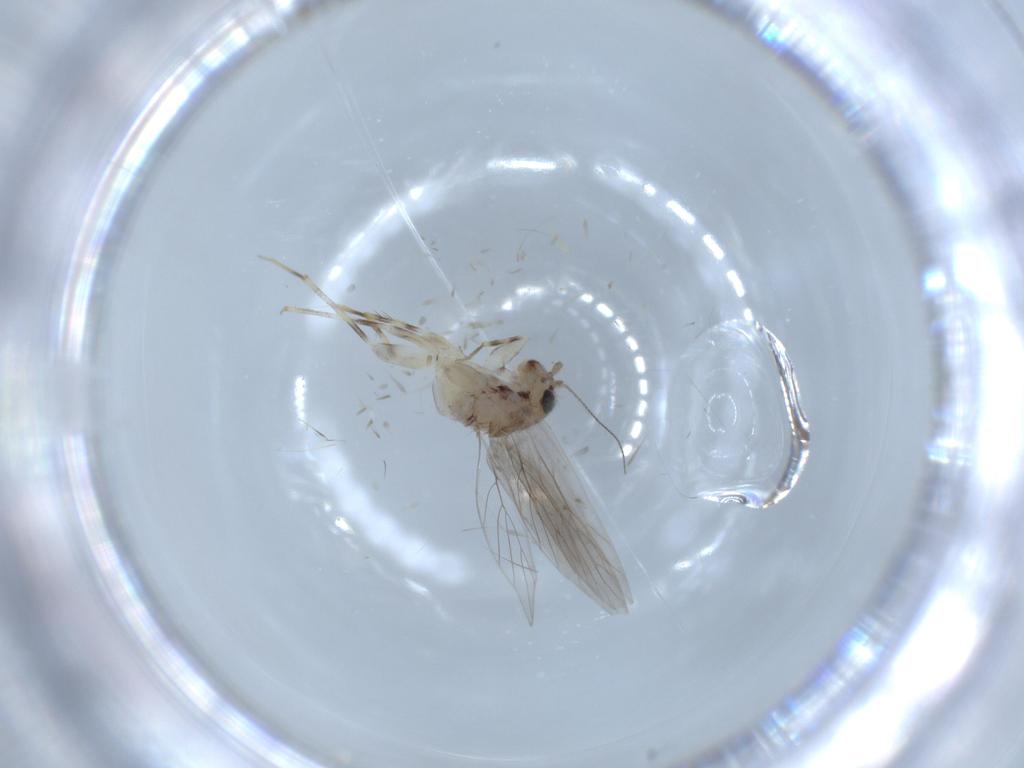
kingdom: Animalia
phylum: Arthropoda
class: Insecta
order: Psocodea
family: Lepidopsocidae
